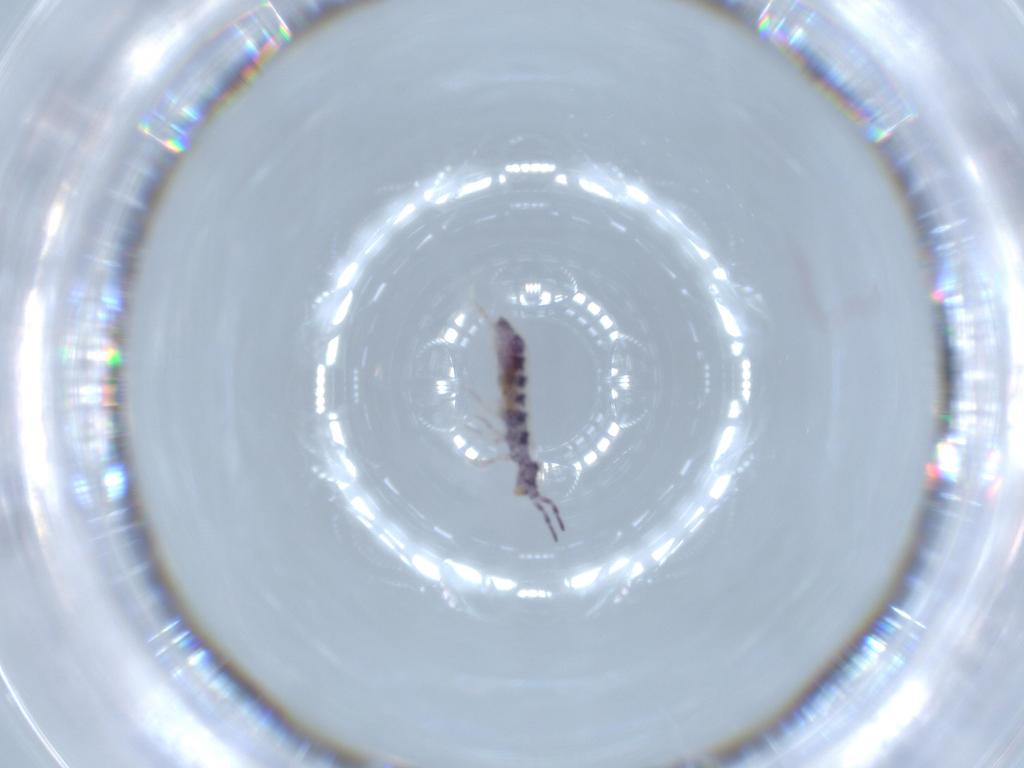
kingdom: Animalia
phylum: Arthropoda
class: Collembola
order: Entomobryomorpha
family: Isotomidae
